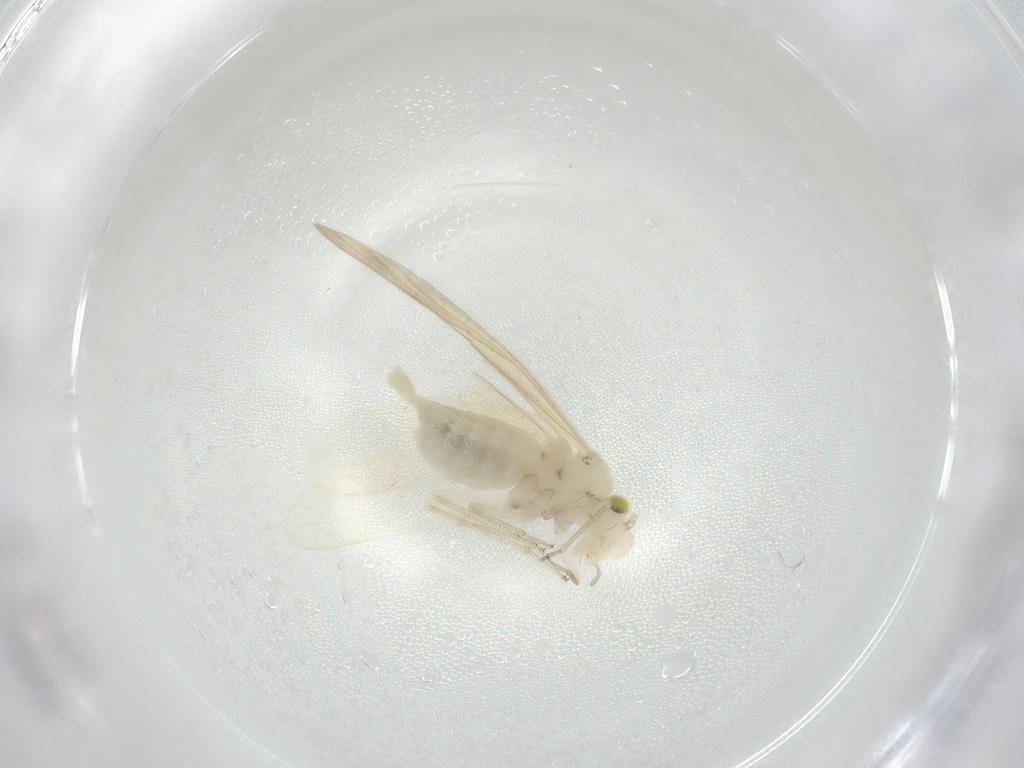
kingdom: Animalia
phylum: Arthropoda
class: Insecta
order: Psocodea
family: Caeciliusidae
